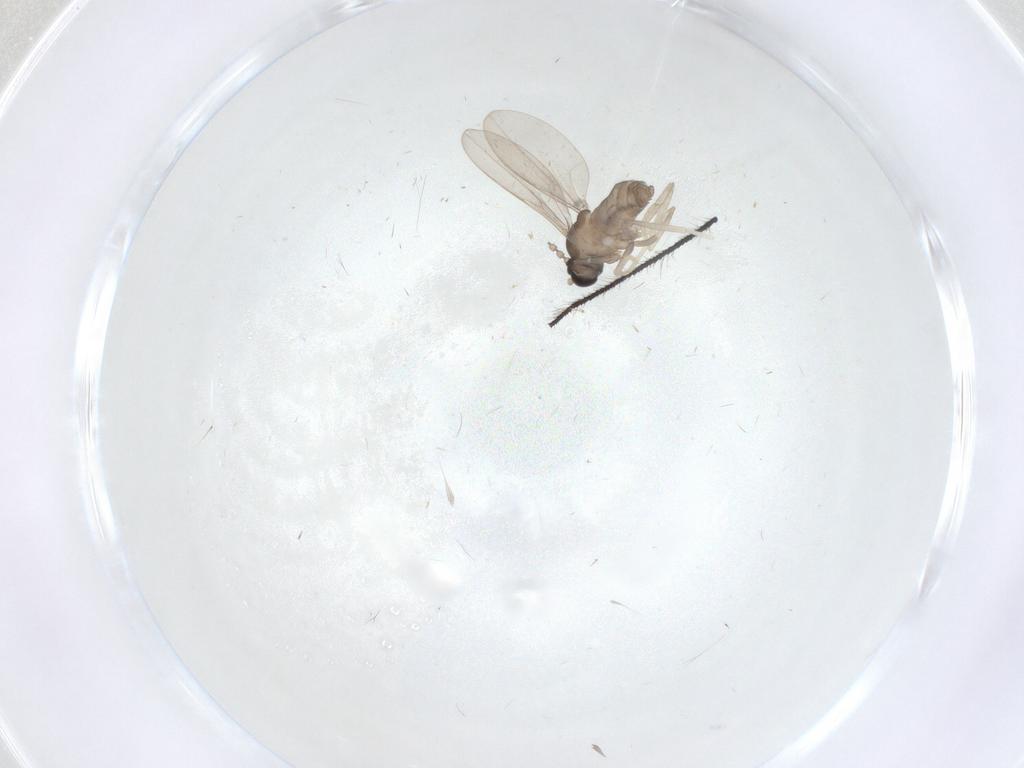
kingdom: Animalia
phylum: Arthropoda
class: Insecta
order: Diptera
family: Cecidomyiidae
